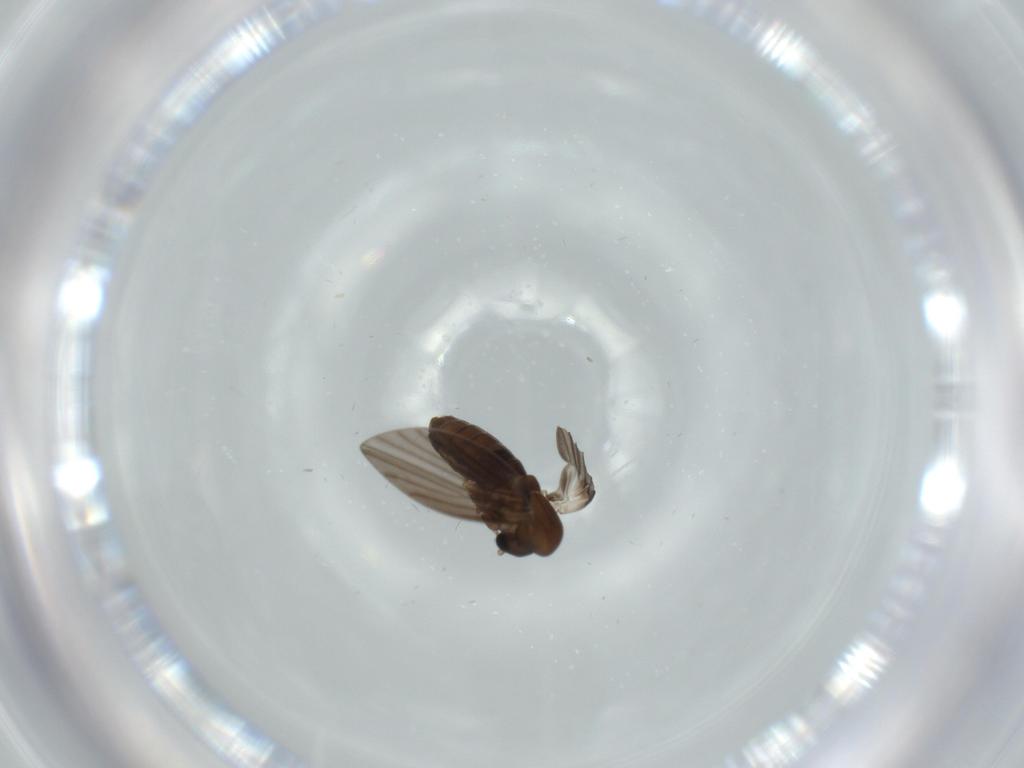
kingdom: Animalia
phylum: Arthropoda
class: Insecta
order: Diptera
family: Psychodidae
